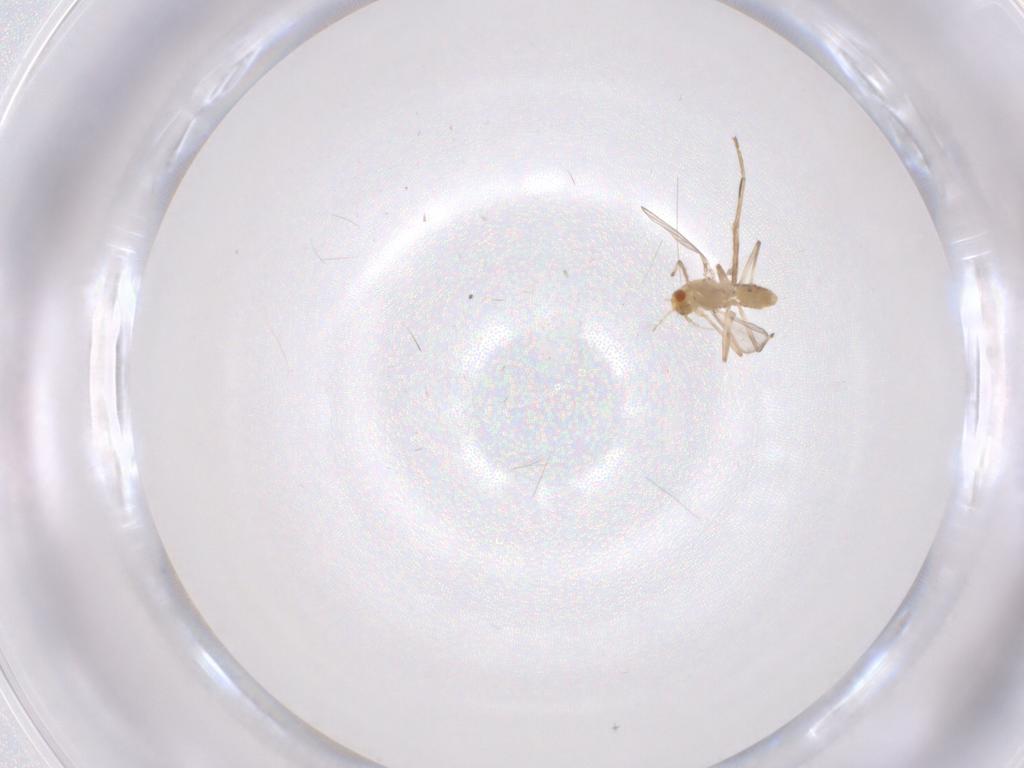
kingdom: Animalia
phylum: Arthropoda
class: Insecta
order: Diptera
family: Chironomidae
